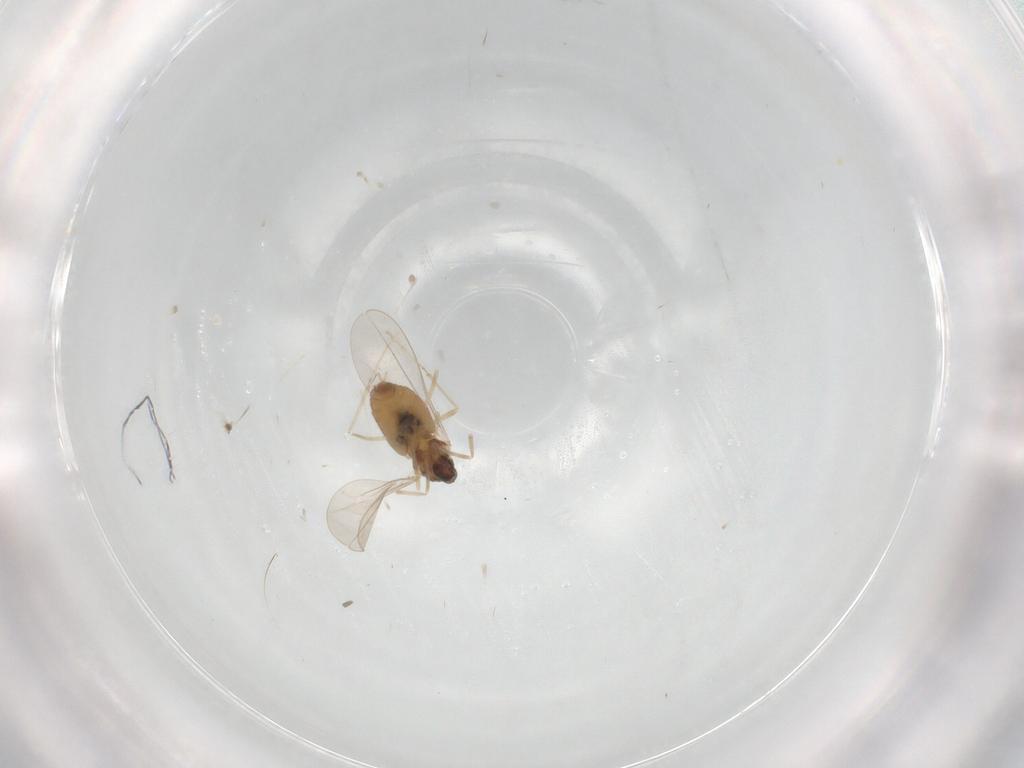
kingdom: Animalia
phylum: Arthropoda
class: Insecta
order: Diptera
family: Cecidomyiidae
